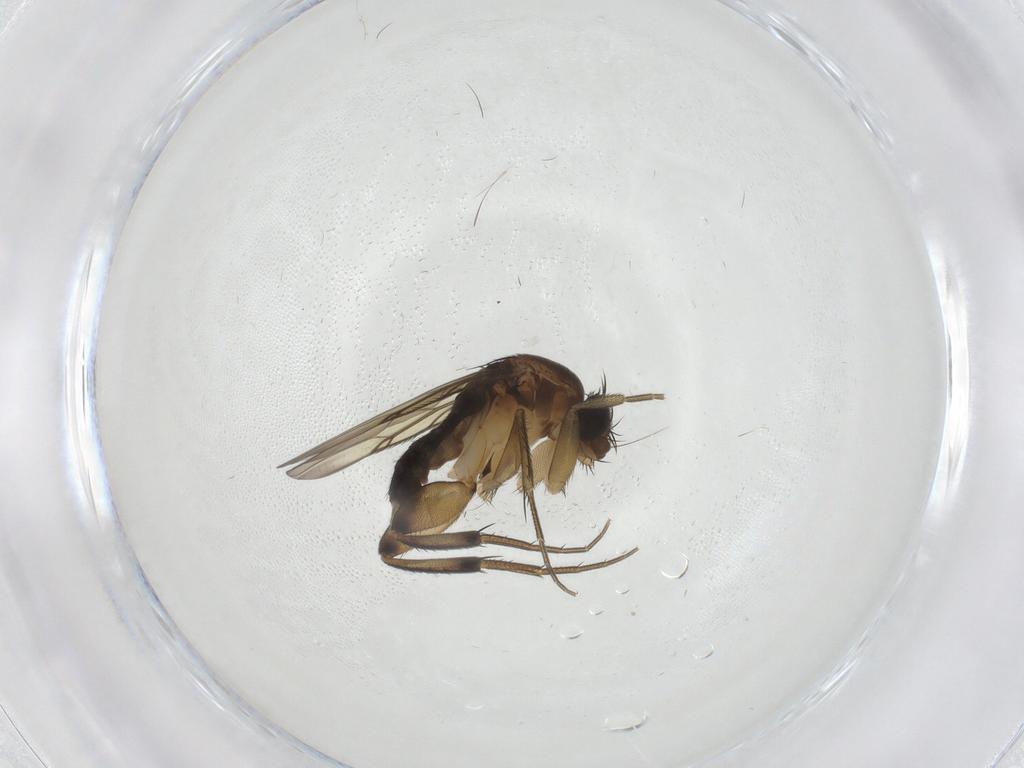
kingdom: Animalia
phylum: Arthropoda
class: Insecta
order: Diptera
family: Phoridae
